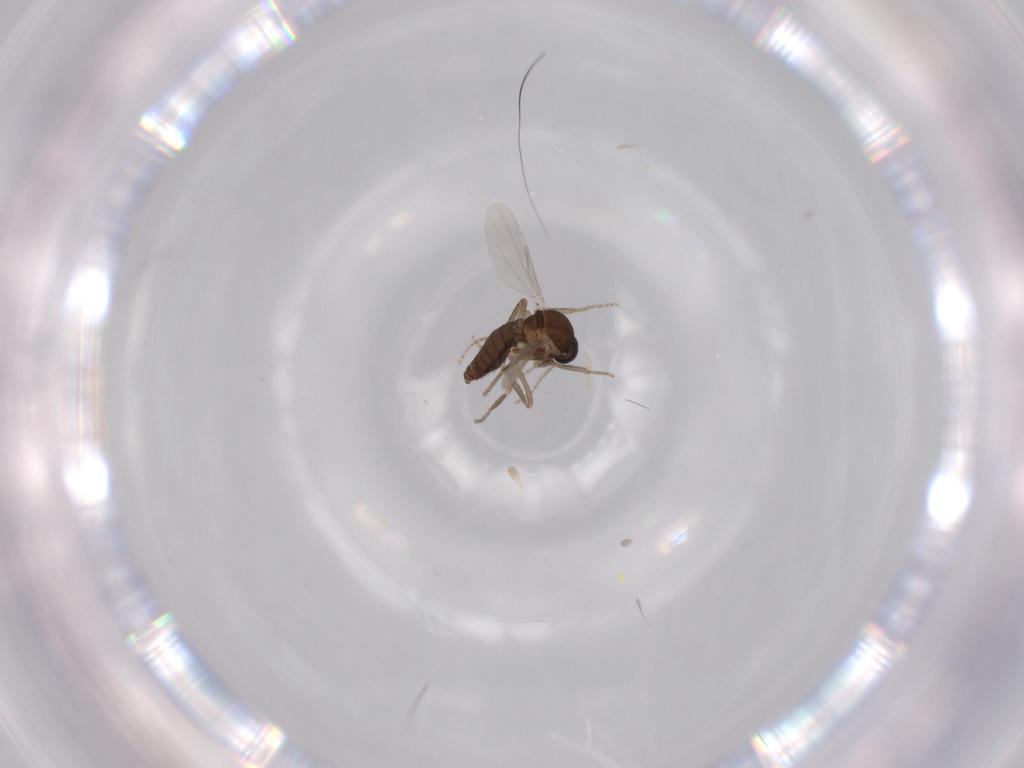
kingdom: Animalia
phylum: Arthropoda
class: Insecta
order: Diptera
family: Ceratopogonidae
